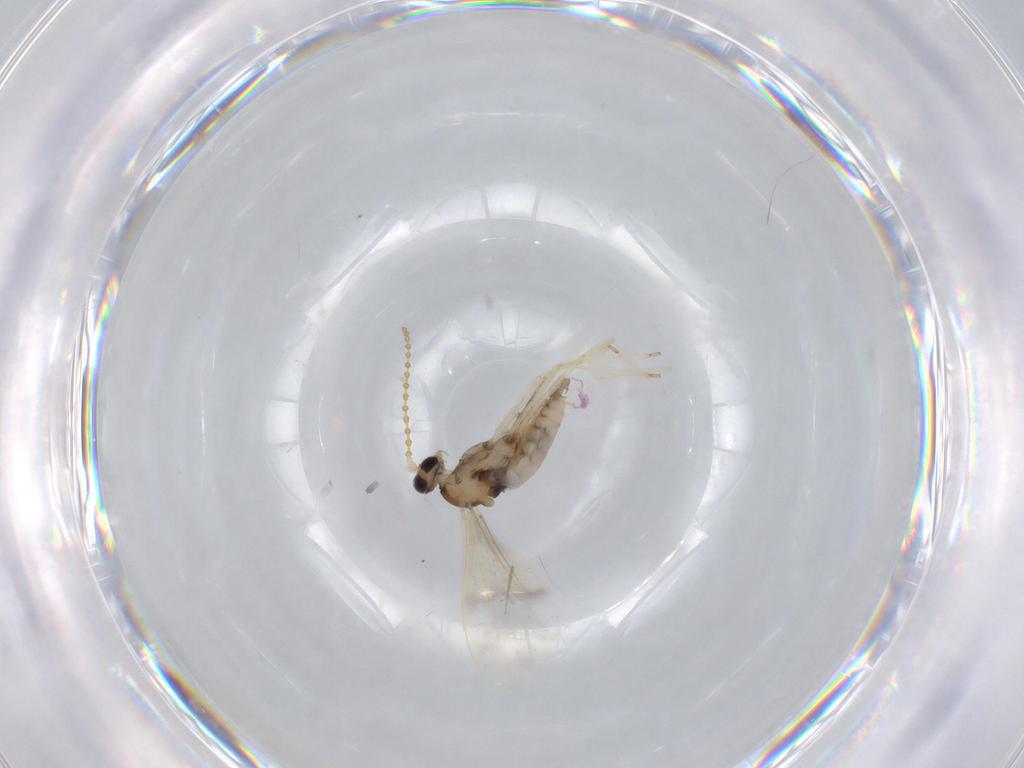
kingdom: Animalia
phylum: Arthropoda
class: Insecta
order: Diptera
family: Cecidomyiidae
